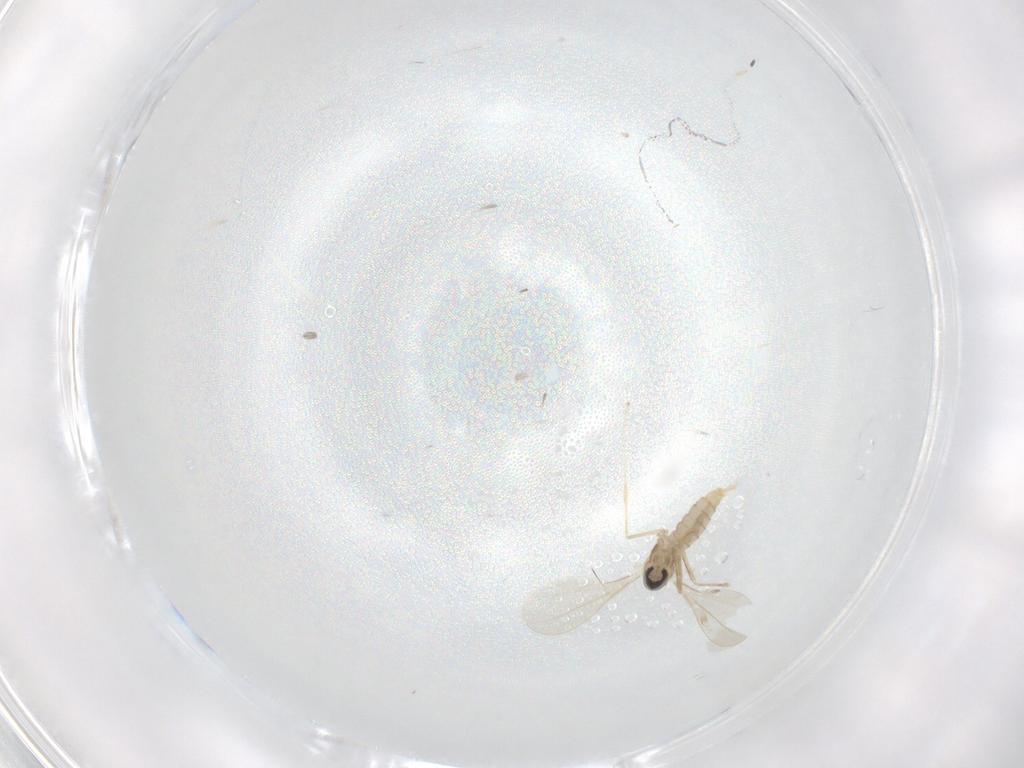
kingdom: Animalia
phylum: Arthropoda
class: Insecta
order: Diptera
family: Cecidomyiidae
